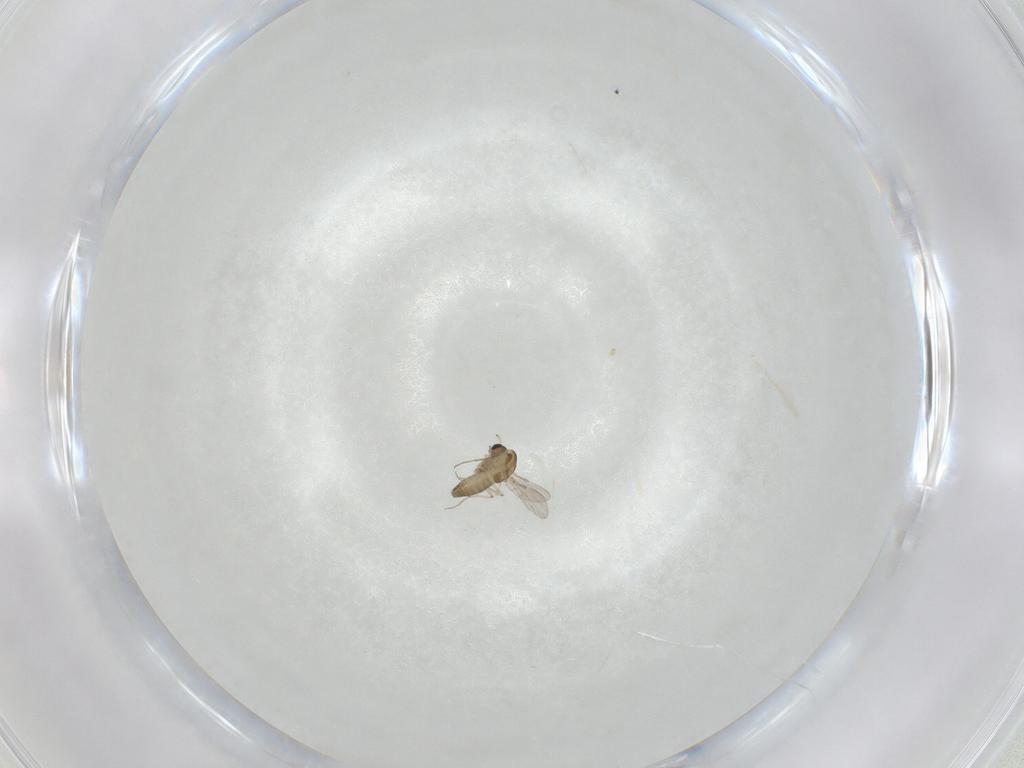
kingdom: Animalia
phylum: Arthropoda
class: Insecta
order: Diptera
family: Chironomidae
